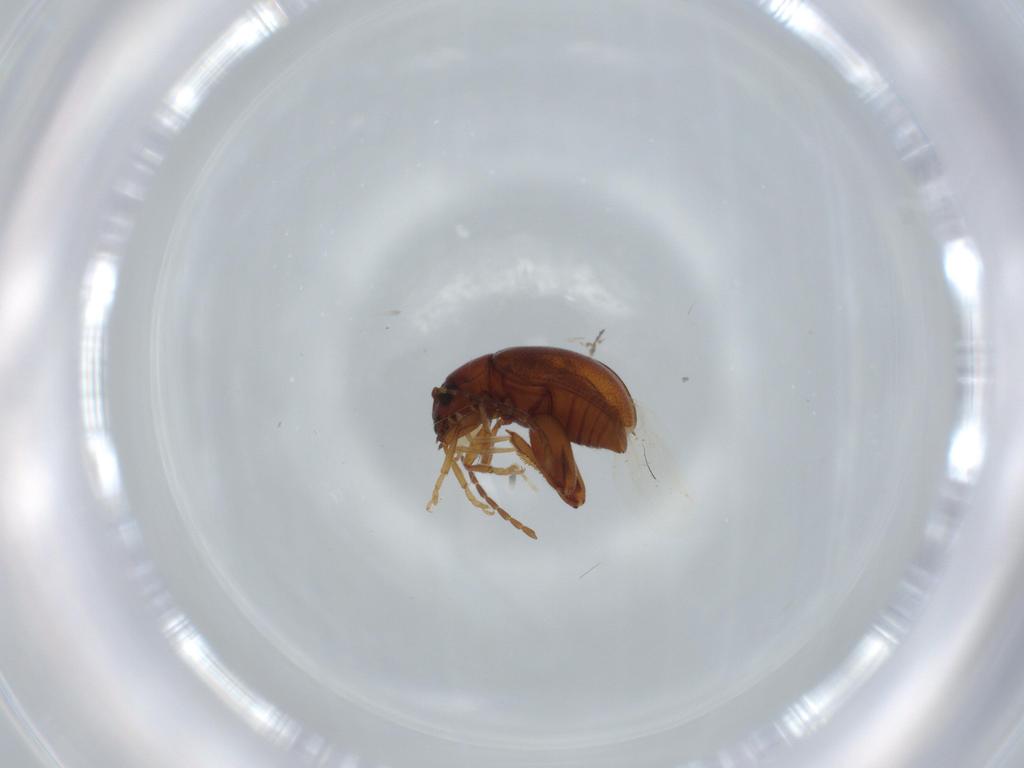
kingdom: Animalia
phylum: Arthropoda
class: Insecta
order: Coleoptera
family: Chrysomelidae
